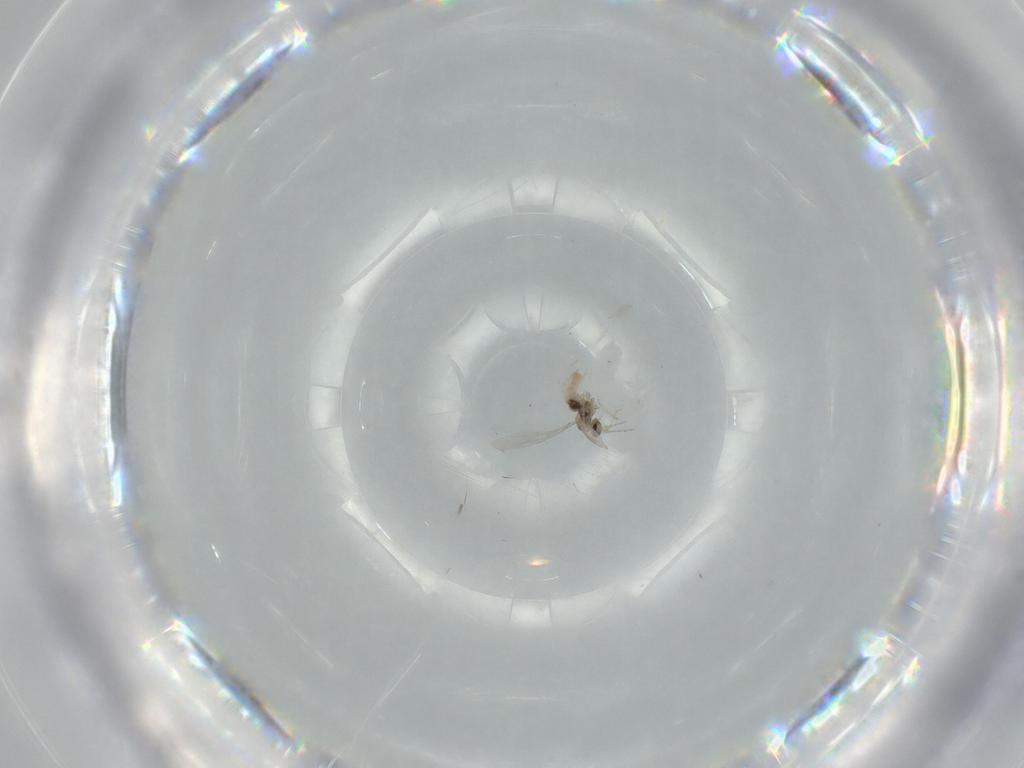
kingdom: Animalia
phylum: Arthropoda
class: Insecta
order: Diptera
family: Cecidomyiidae
